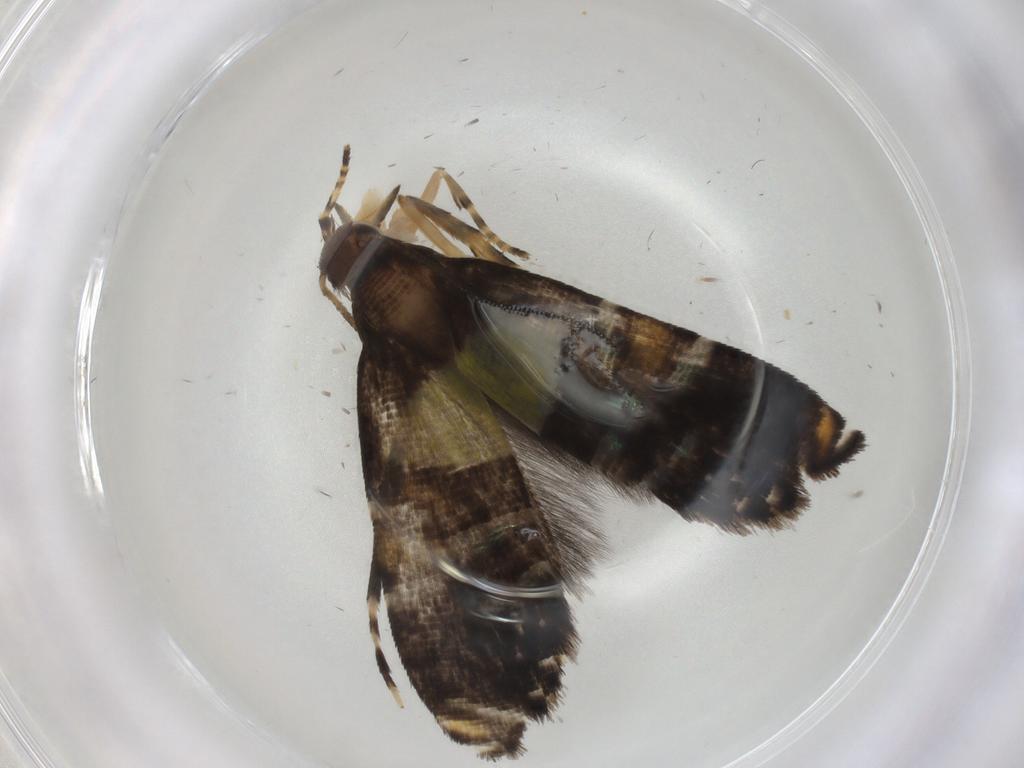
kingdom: Animalia
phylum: Arthropoda
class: Insecta
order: Lepidoptera
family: Glyphipterigidae
